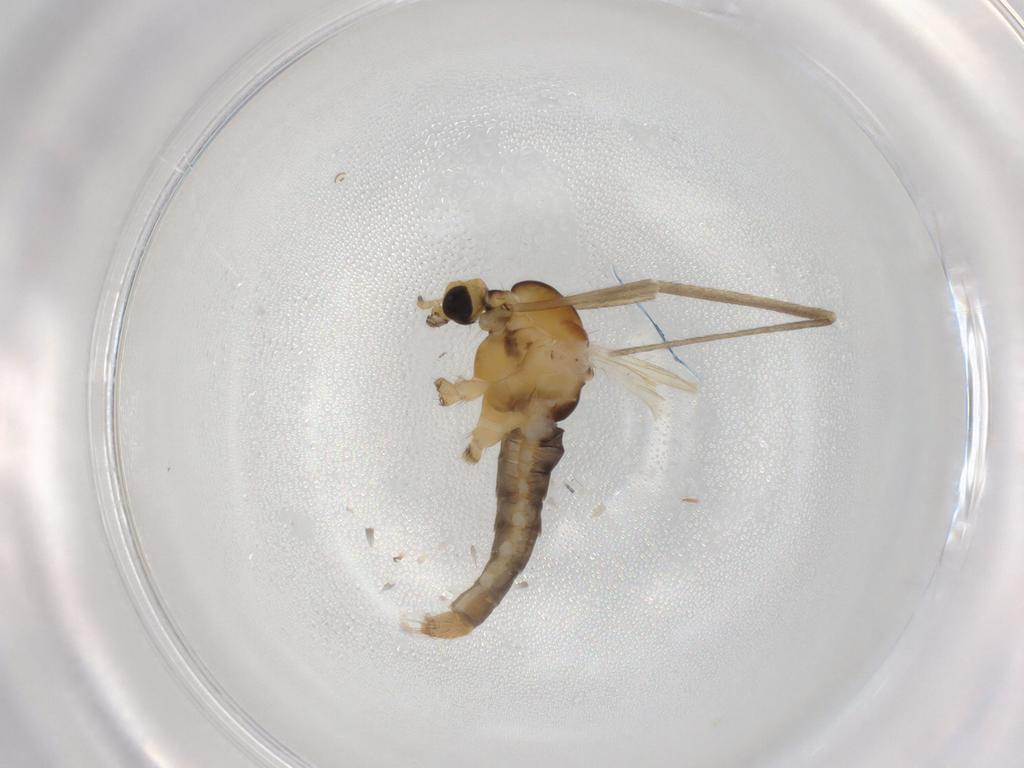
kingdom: Animalia
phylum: Arthropoda
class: Insecta
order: Diptera
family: Limoniidae
